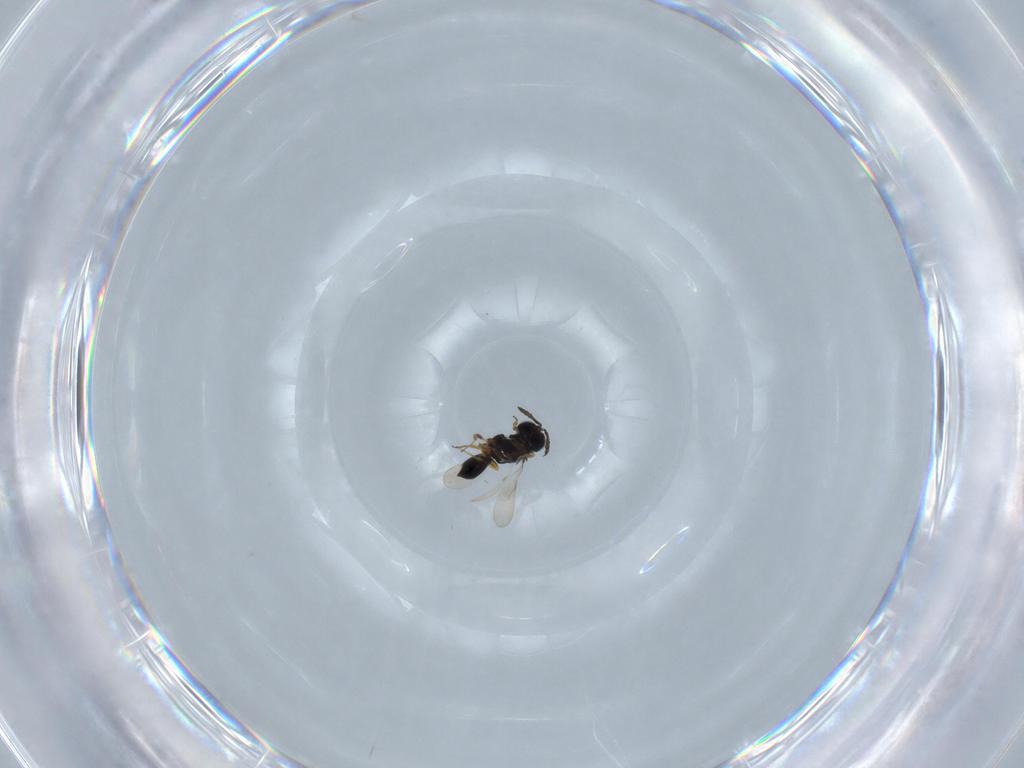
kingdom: Animalia
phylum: Arthropoda
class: Insecta
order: Hymenoptera
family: Scelionidae
